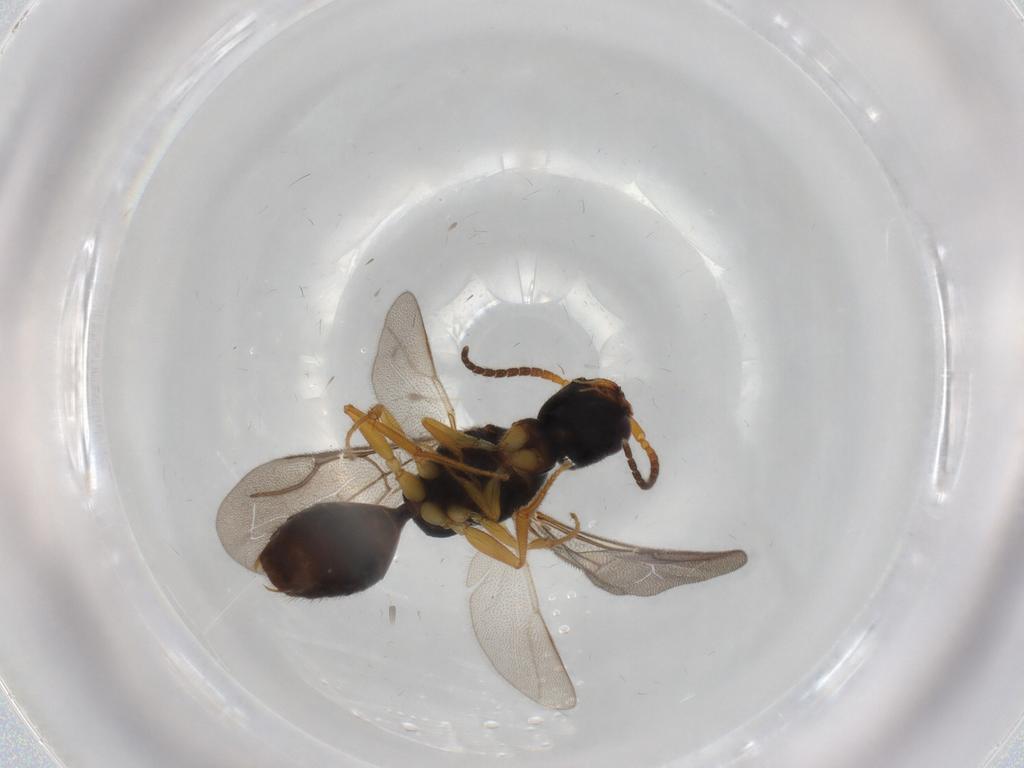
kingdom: Animalia
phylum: Arthropoda
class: Insecta
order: Hymenoptera
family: Bethylidae
